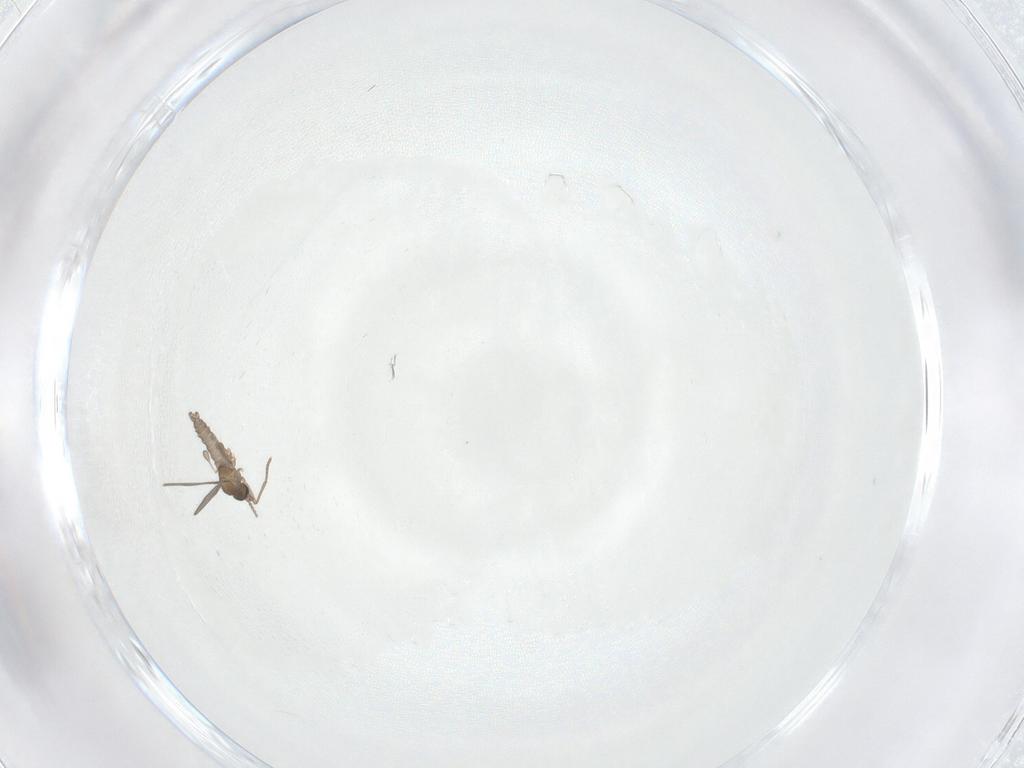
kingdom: Animalia
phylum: Arthropoda
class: Insecta
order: Diptera
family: Sciaridae
